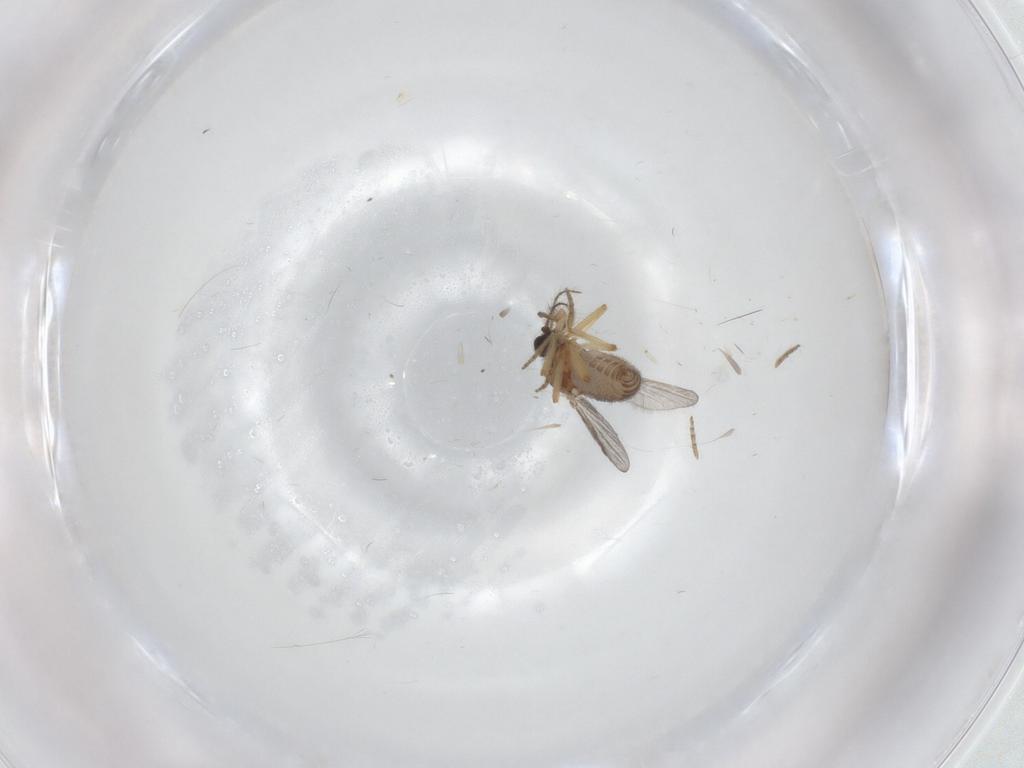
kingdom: Animalia
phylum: Arthropoda
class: Insecta
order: Diptera
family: Ceratopogonidae
